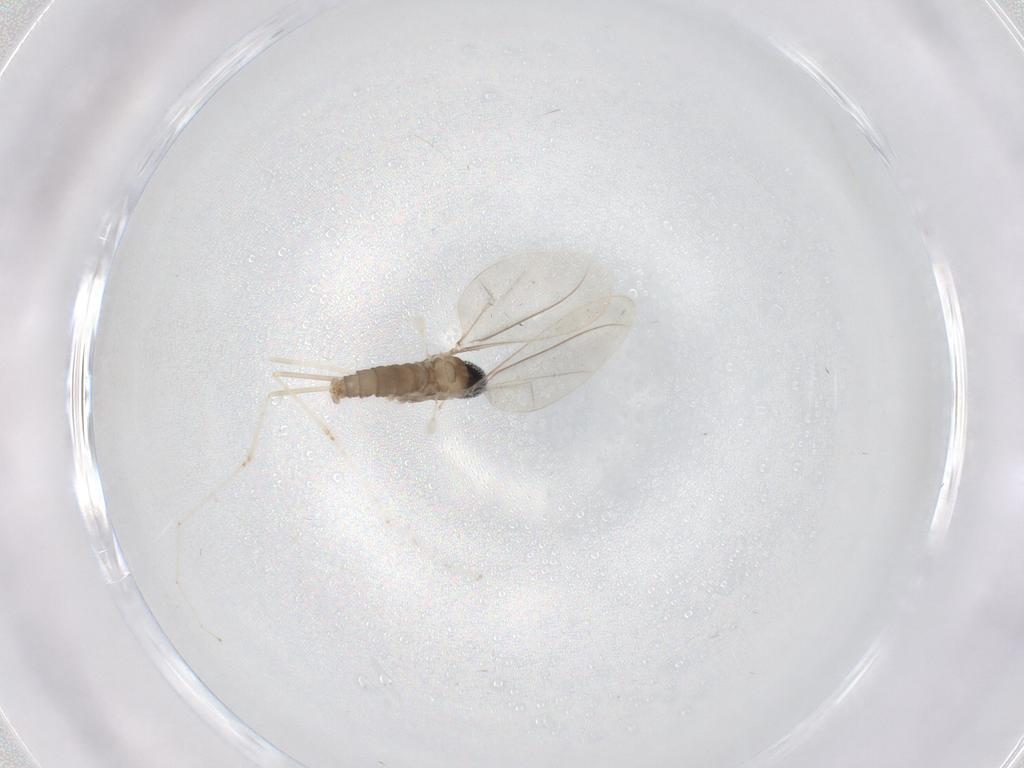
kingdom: Animalia
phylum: Arthropoda
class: Insecta
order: Diptera
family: Cecidomyiidae
